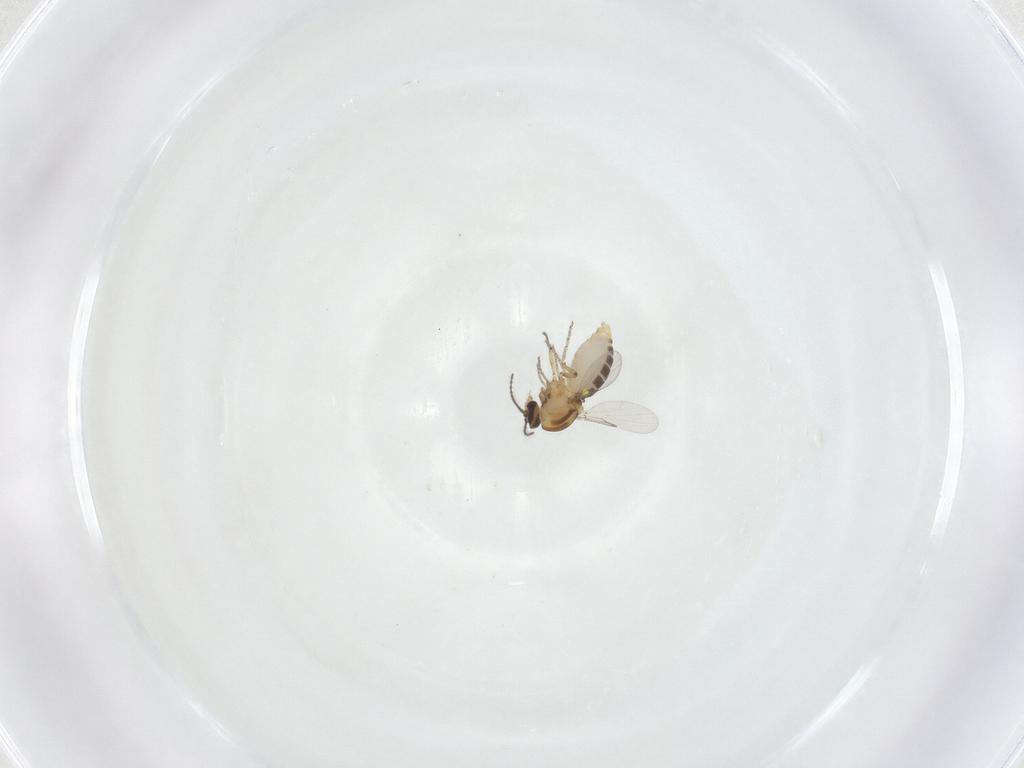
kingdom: Animalia
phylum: Arthropoda
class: Insecta
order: Diptera
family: Ceratopogonidae
